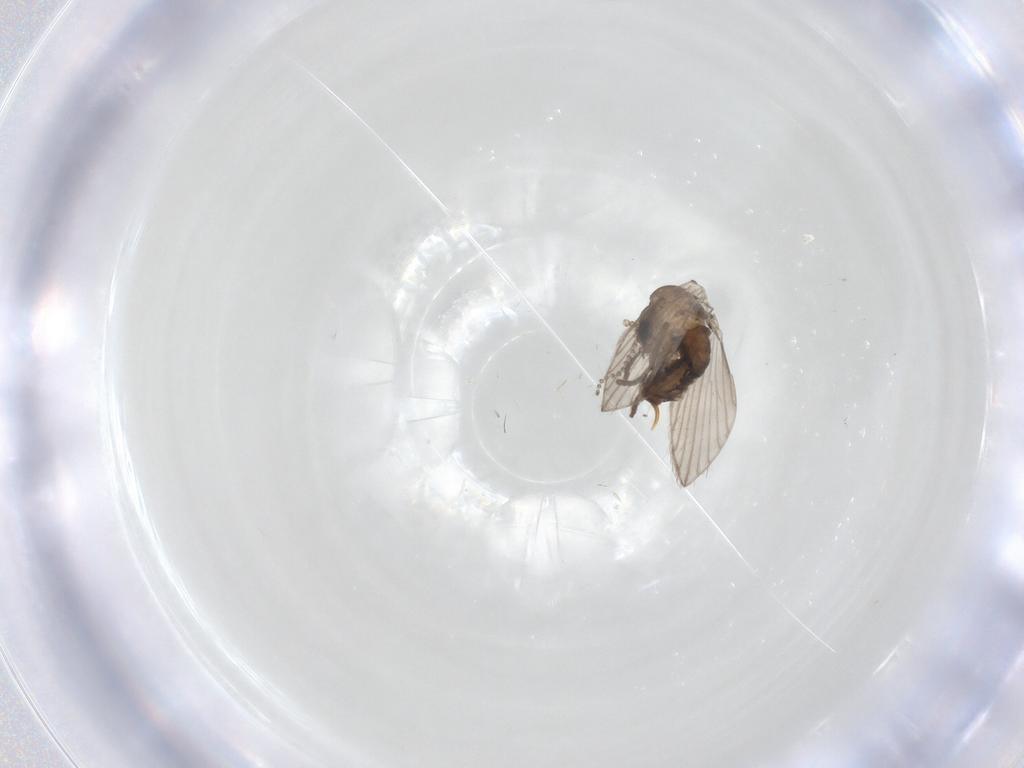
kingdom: Animalia
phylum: Arthropoda
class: Insecta
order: Diptera
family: Psychodidae
